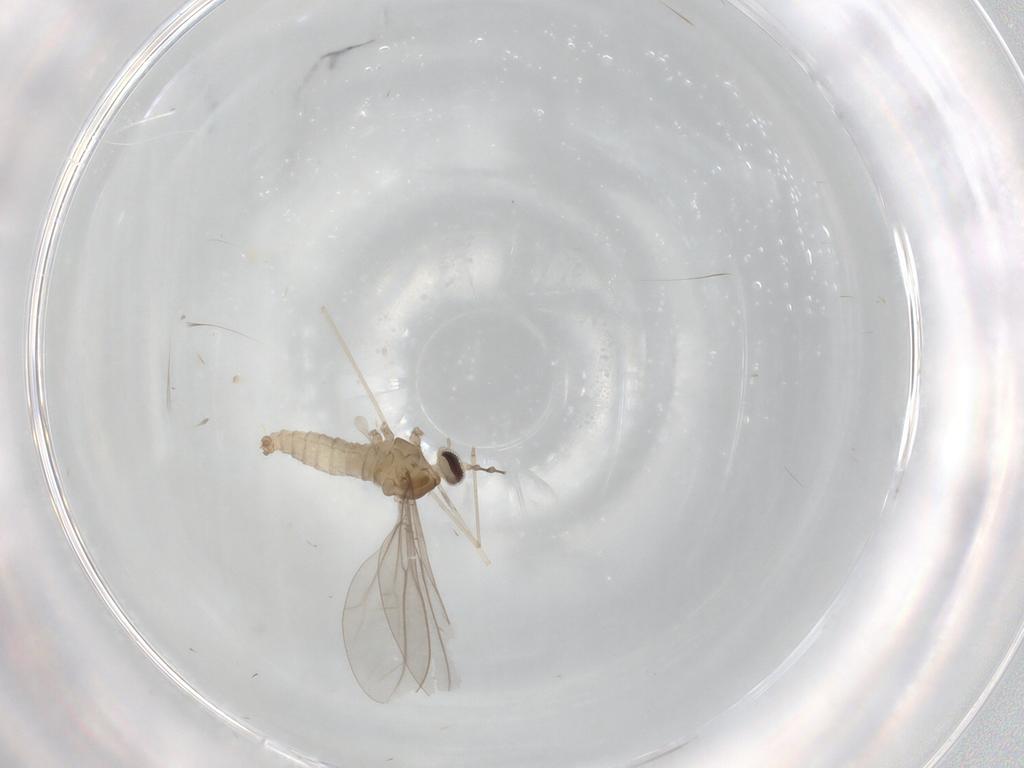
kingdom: Animalia
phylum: Arthropoda
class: Insecta
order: Diptera
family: Cecidomyiidae
